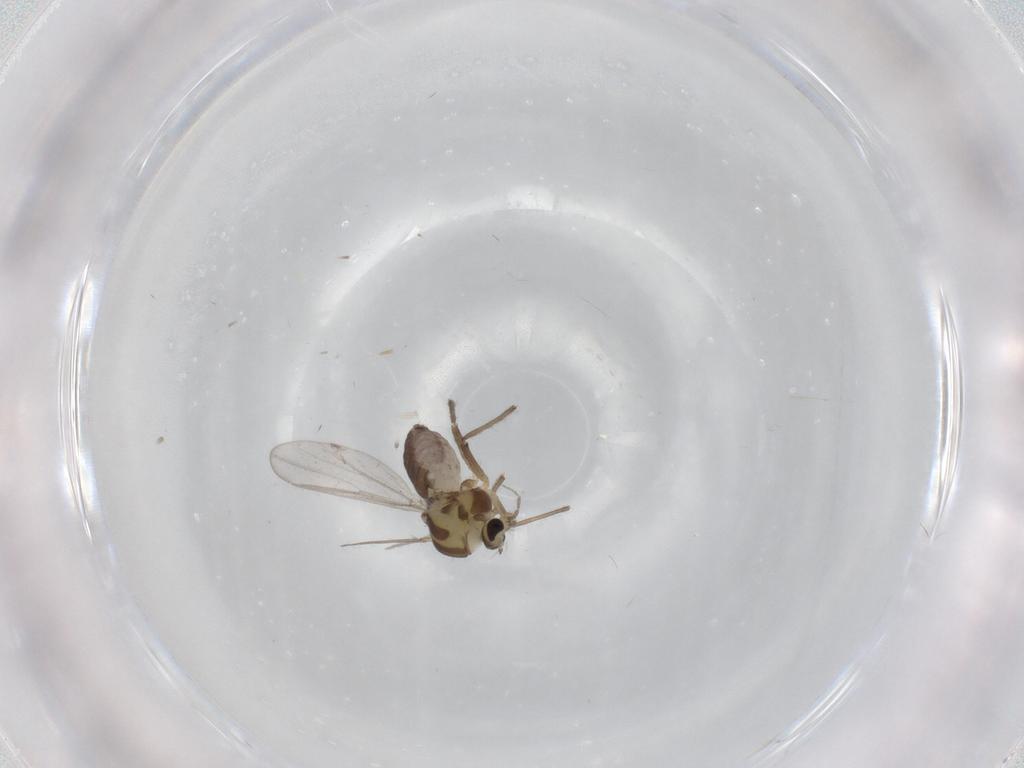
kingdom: Animalia
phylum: Arthropoda
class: Insecta
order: Diptera
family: Chironomidae
